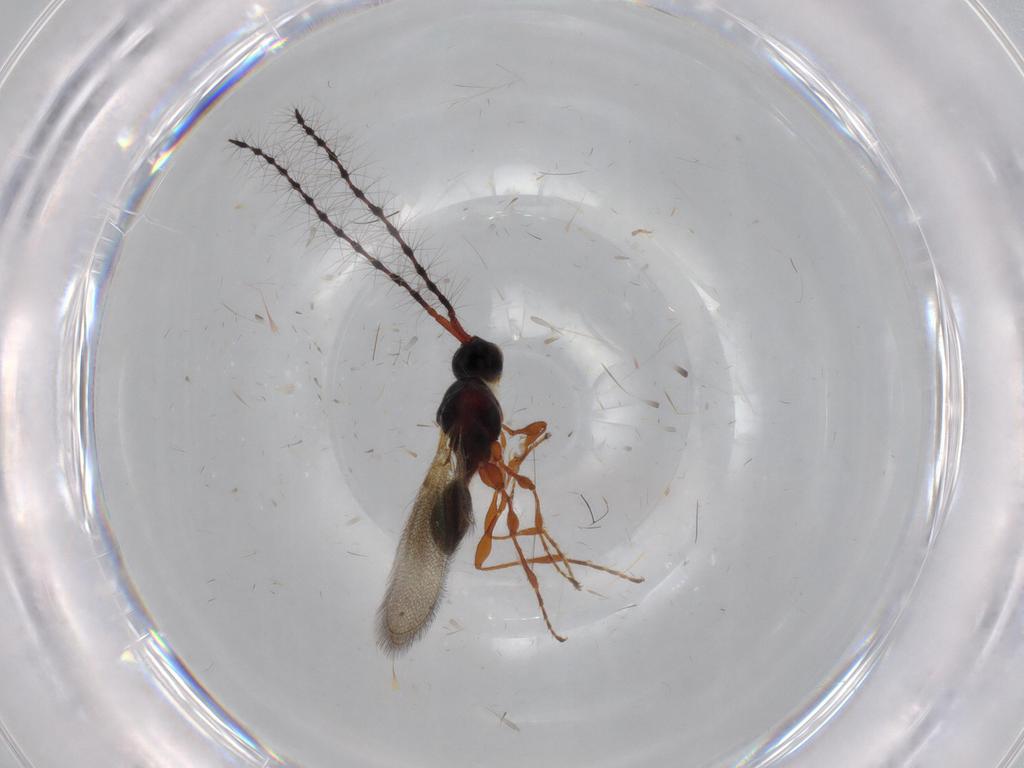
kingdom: Animalia
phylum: Arthropoda
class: Insecta
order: Hymenoptera
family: Diapriidae
